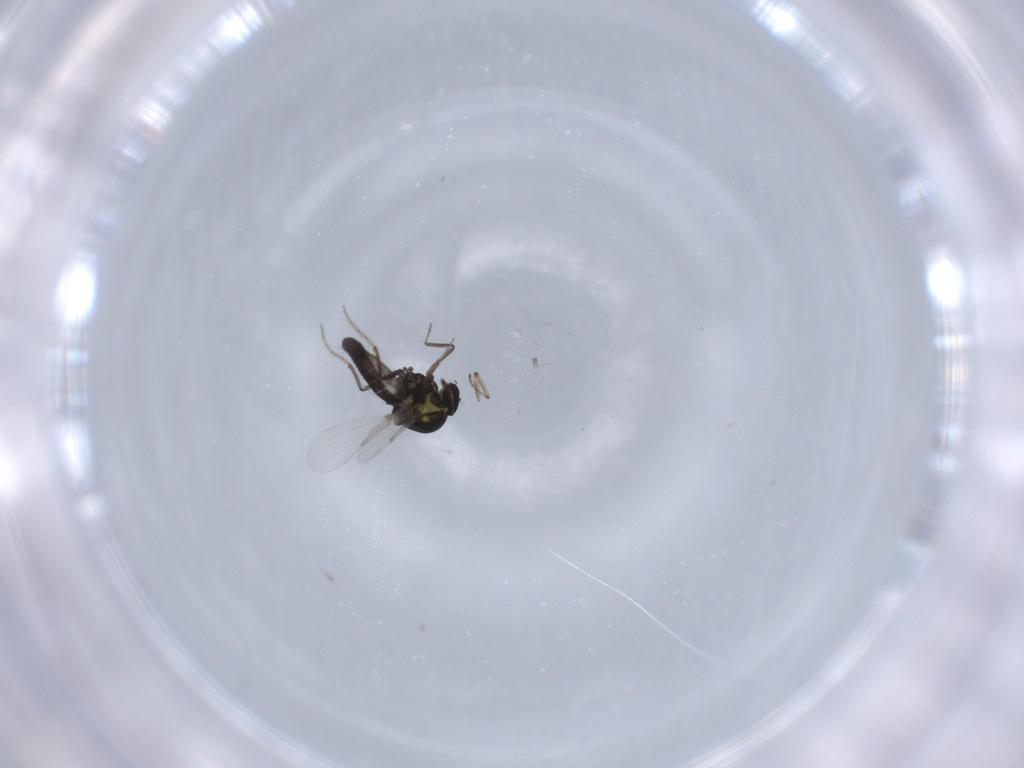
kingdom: Animalia
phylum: Arthropoda
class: Insecta
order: Diptera
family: Ceratopogonidae
